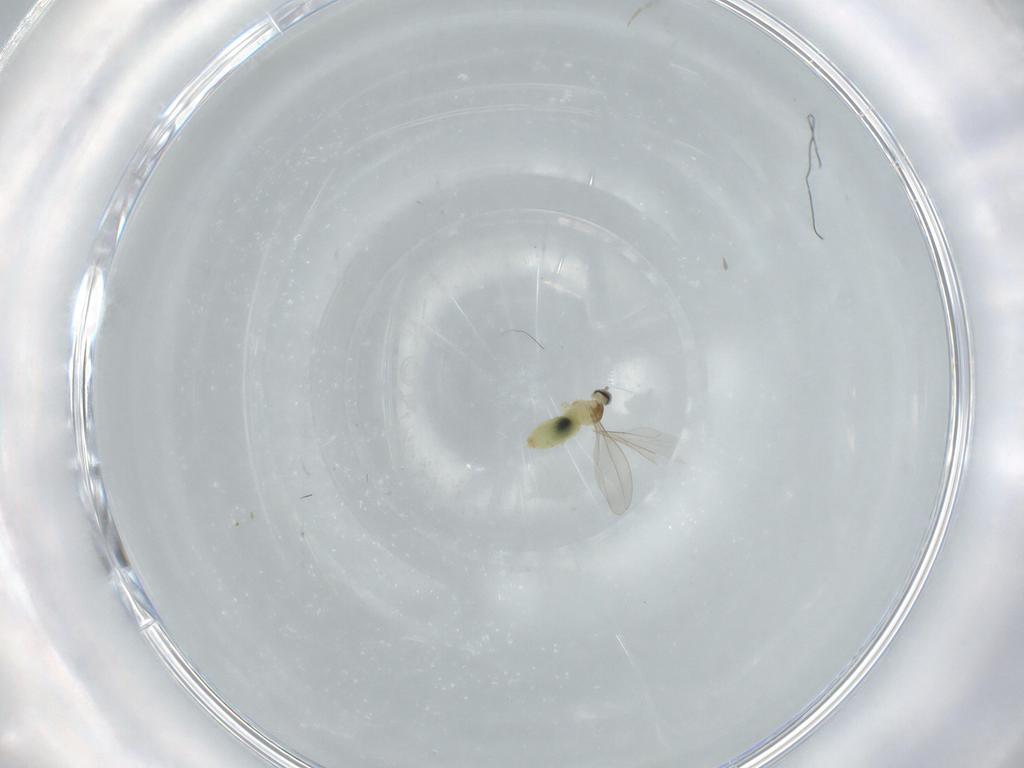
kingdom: Animalia
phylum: Arthropoda
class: Insecta
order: Diptera
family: Cecidomyiidae
